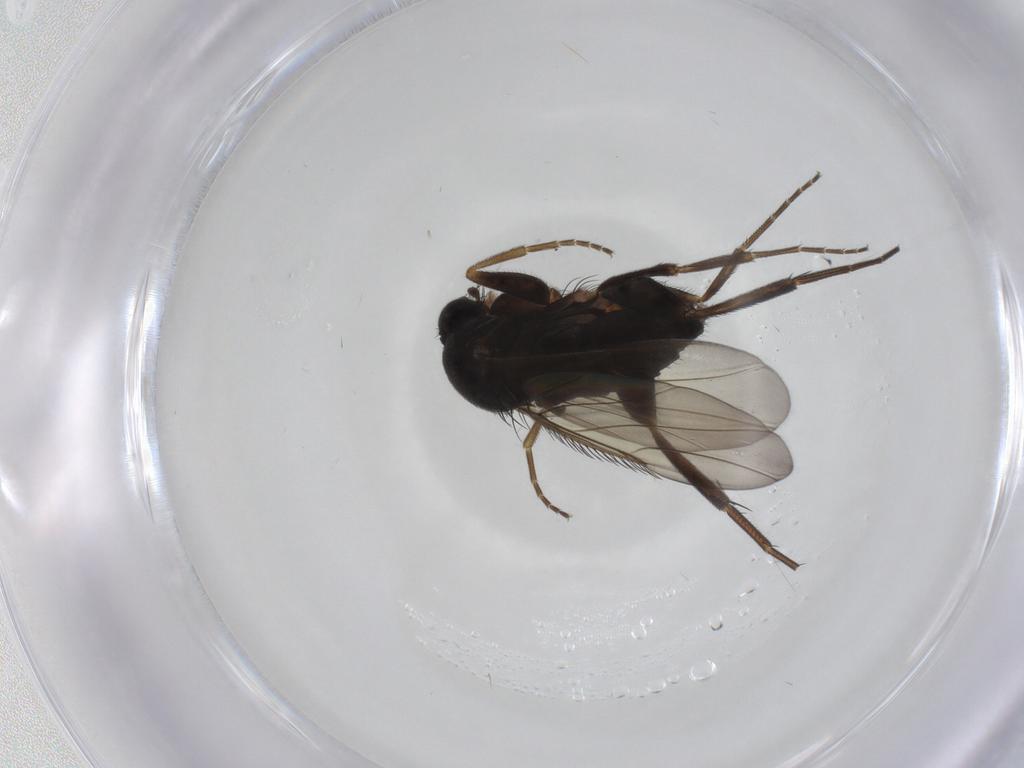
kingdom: Animalia
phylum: Arthropoda
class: Insecta
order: Diptera
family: Phoridae
